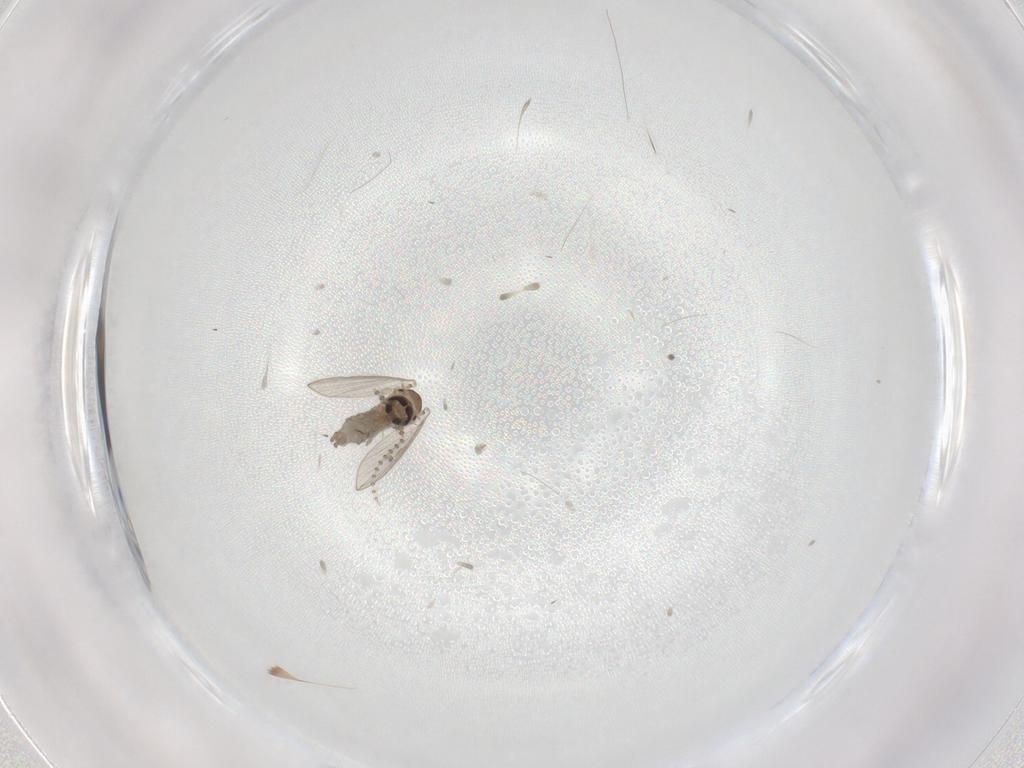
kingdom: Animalia
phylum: Arthropoda
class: Insecta
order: Diptera
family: Psychodidae
